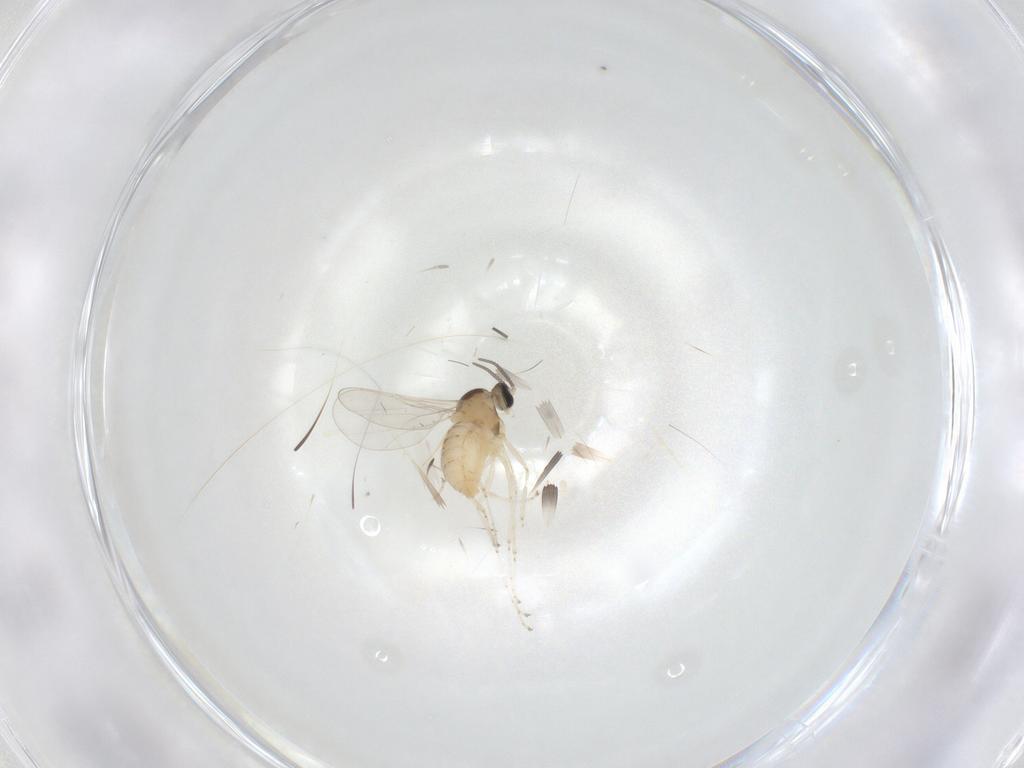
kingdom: Animalia
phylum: Arthropoda
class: Insecta
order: Diptera
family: Cecidomyiidae
